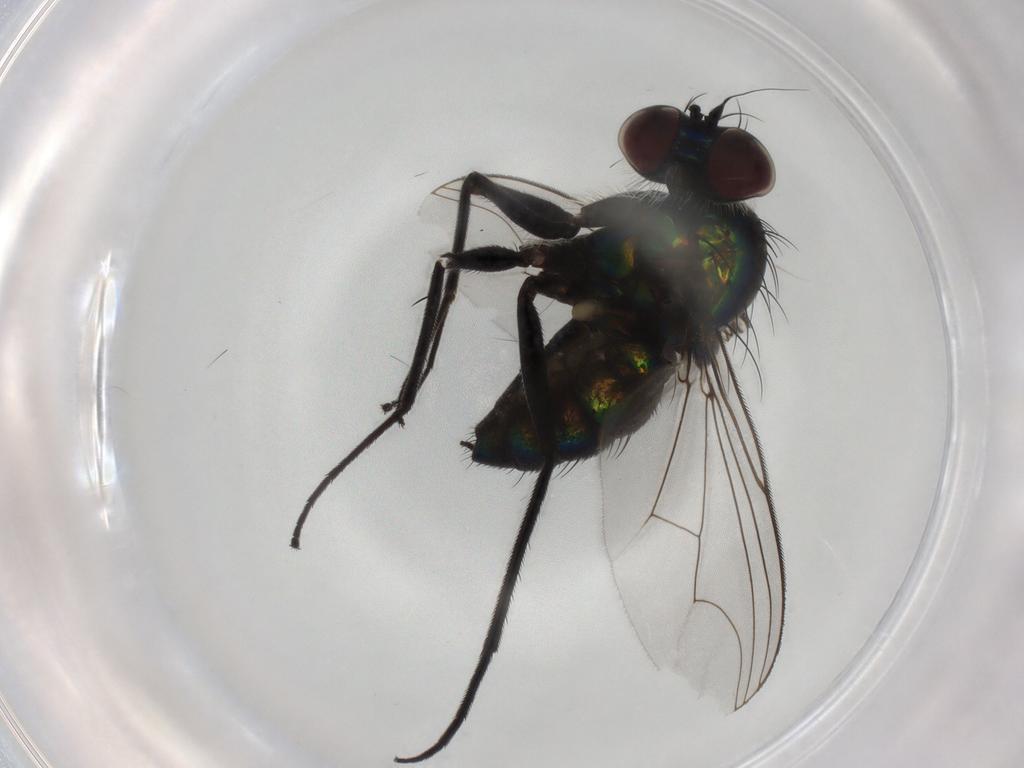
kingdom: Animalia
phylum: Arthropoda
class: Insecta
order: Diptera
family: Dolichopodidae
